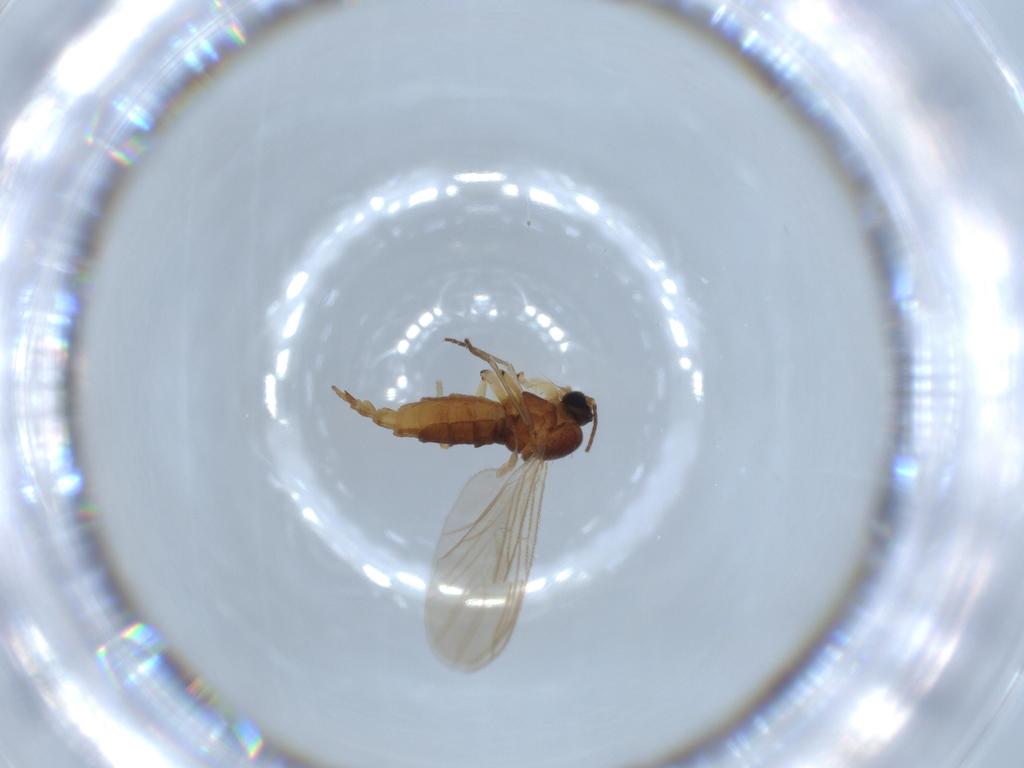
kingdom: Animalia
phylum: Arthropoda
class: Insecta
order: Diptera
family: Sciaridae
